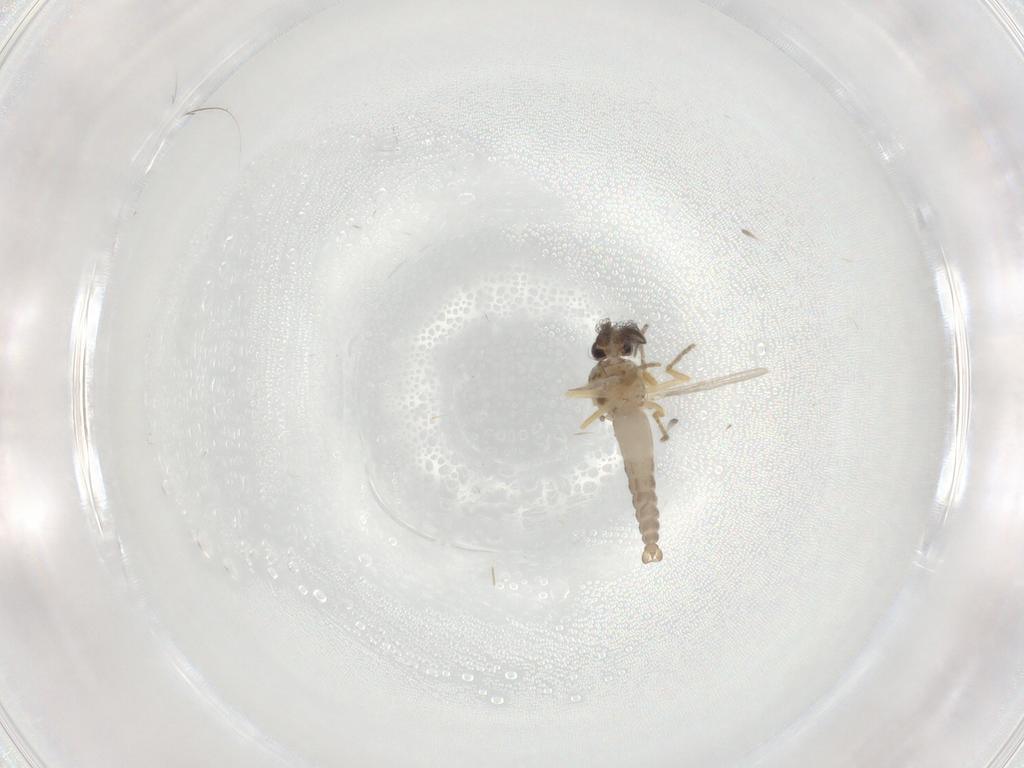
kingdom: Animalia
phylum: Arthropoda
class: Insecta
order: Diptera
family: Ceratopogonidae
